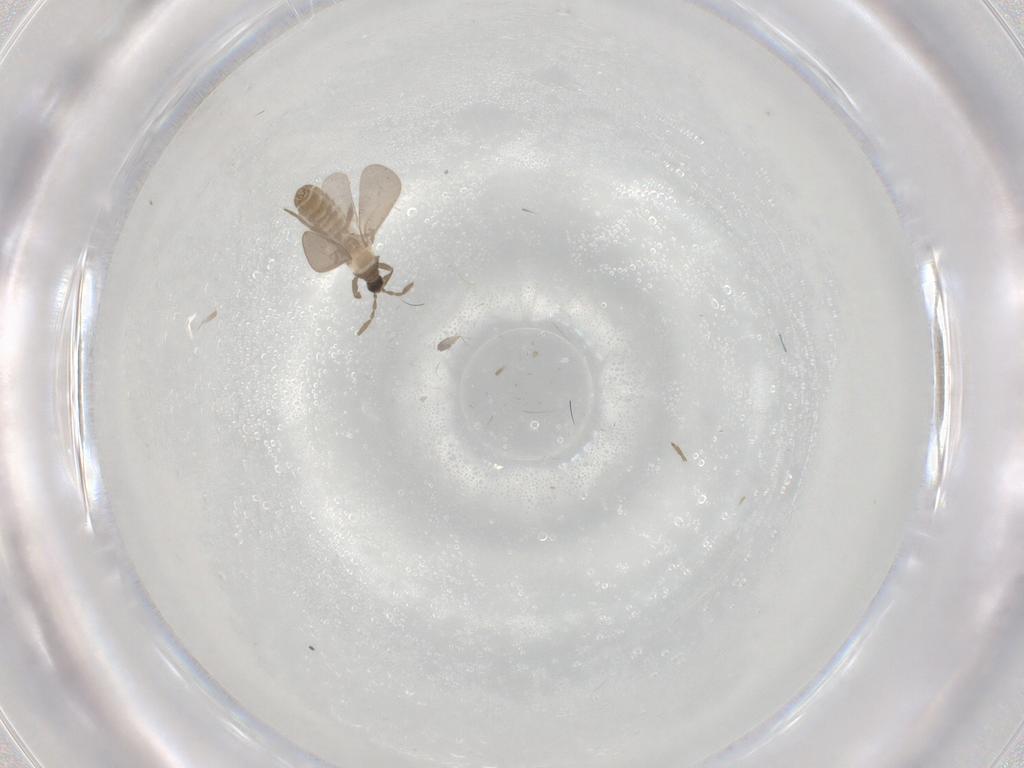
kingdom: Animalia
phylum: Arthropoda
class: Insecta
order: Hemiptera
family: Enicocephalidae
